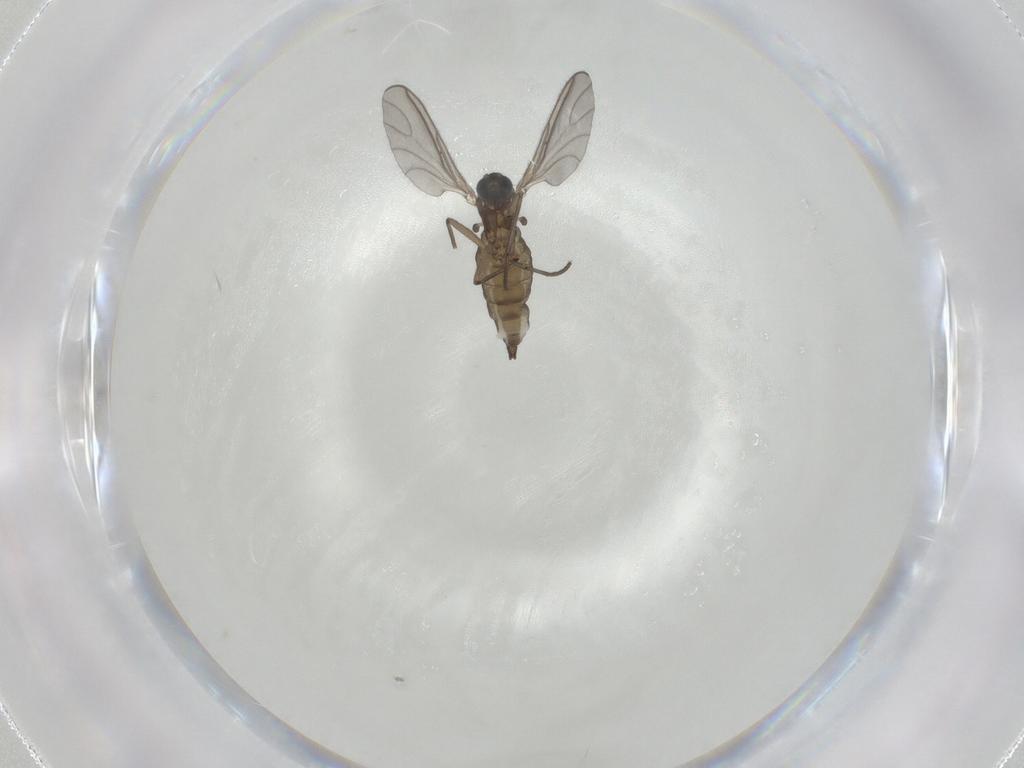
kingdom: Animalia
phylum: Arthropoda
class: Insecta
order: Diptera
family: Sciaridae
